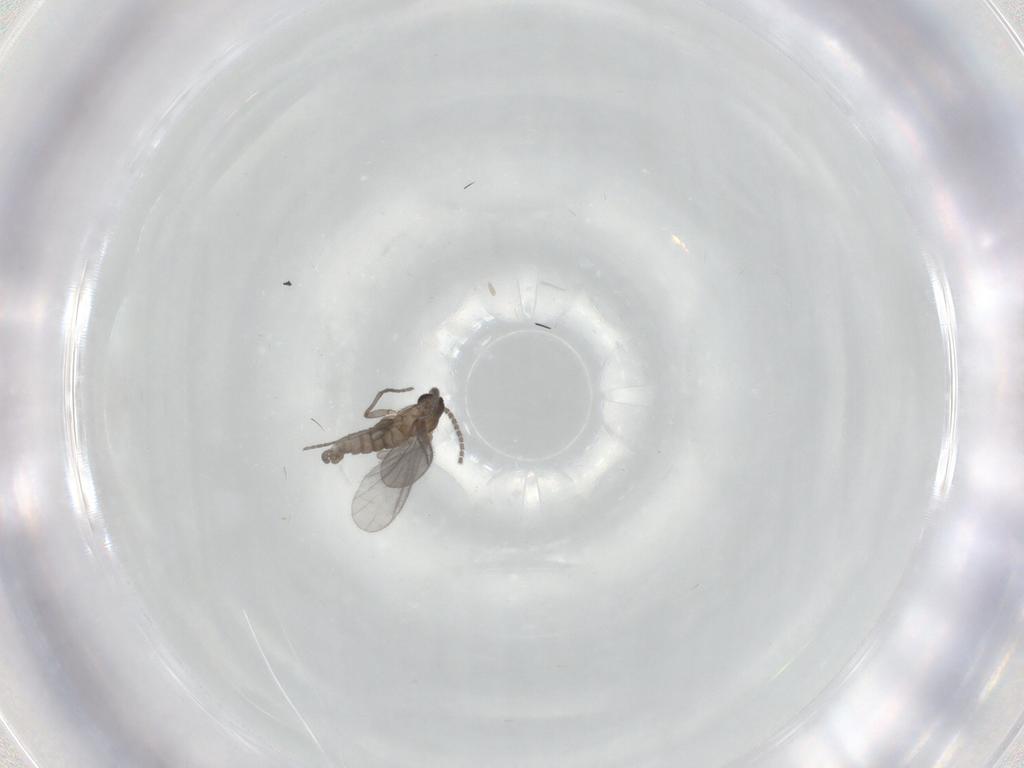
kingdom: Animalia
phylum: Arthropoda
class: Insecta
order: Diptera
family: Sciaridae
